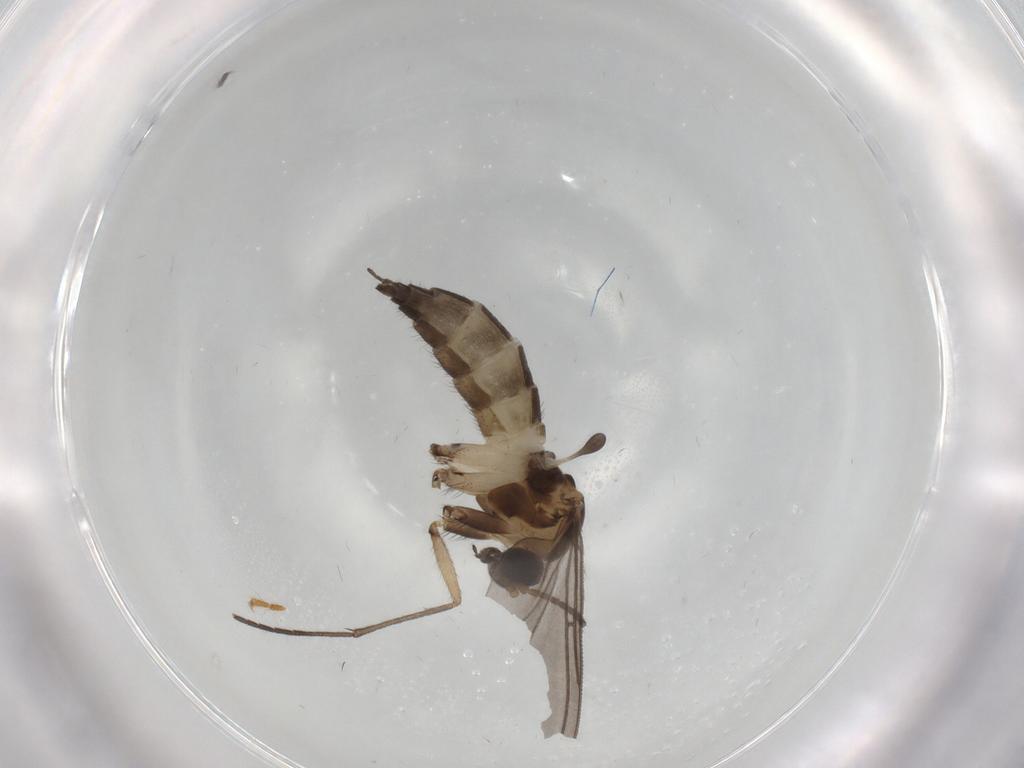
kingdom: Animalia
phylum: Arthropoda
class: Insecta
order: Diptera
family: Sciaridae
